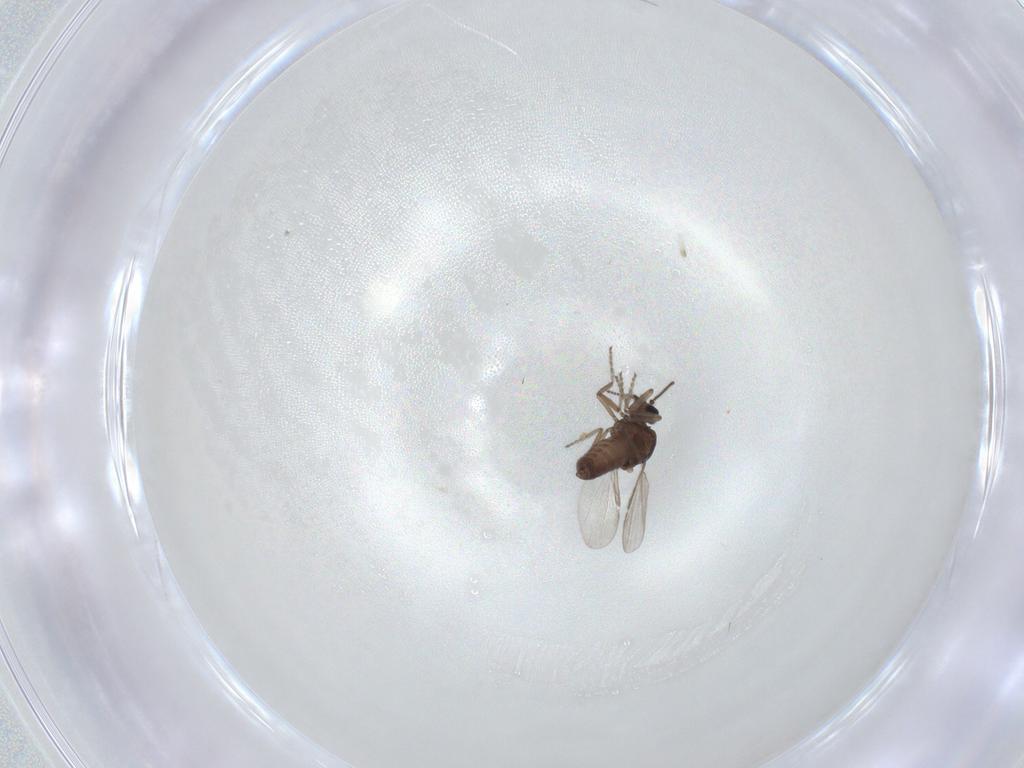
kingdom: Animalia
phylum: Arthropoda
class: Insecta
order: Diptera
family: Ceratopogonidae
